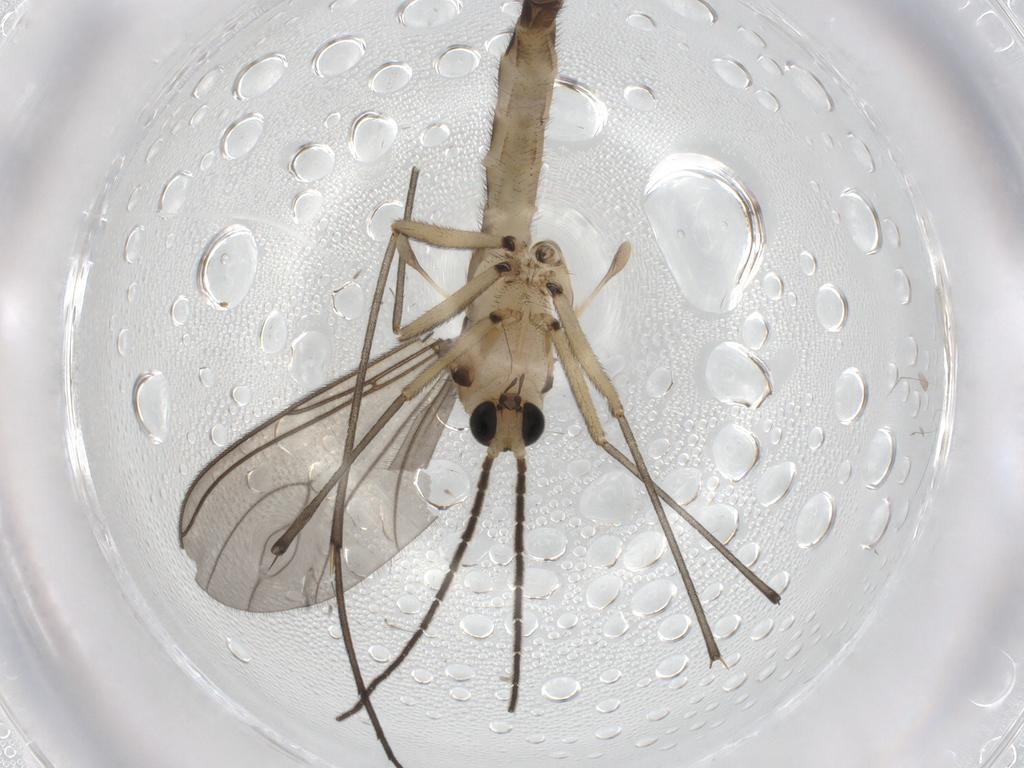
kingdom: Animalia
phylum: Arthropoda
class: Insecta
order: Diptera
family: Sciaridae
